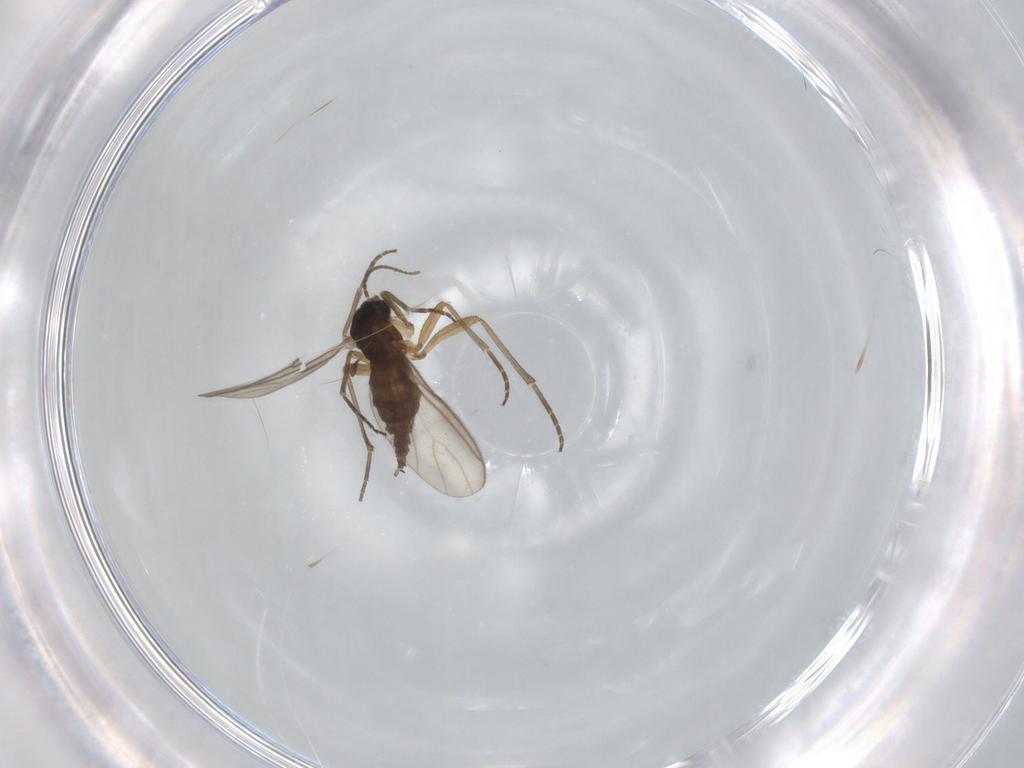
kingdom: Animalia
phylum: Arthropoda
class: Insecta
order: Diptera
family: Sciaridae
